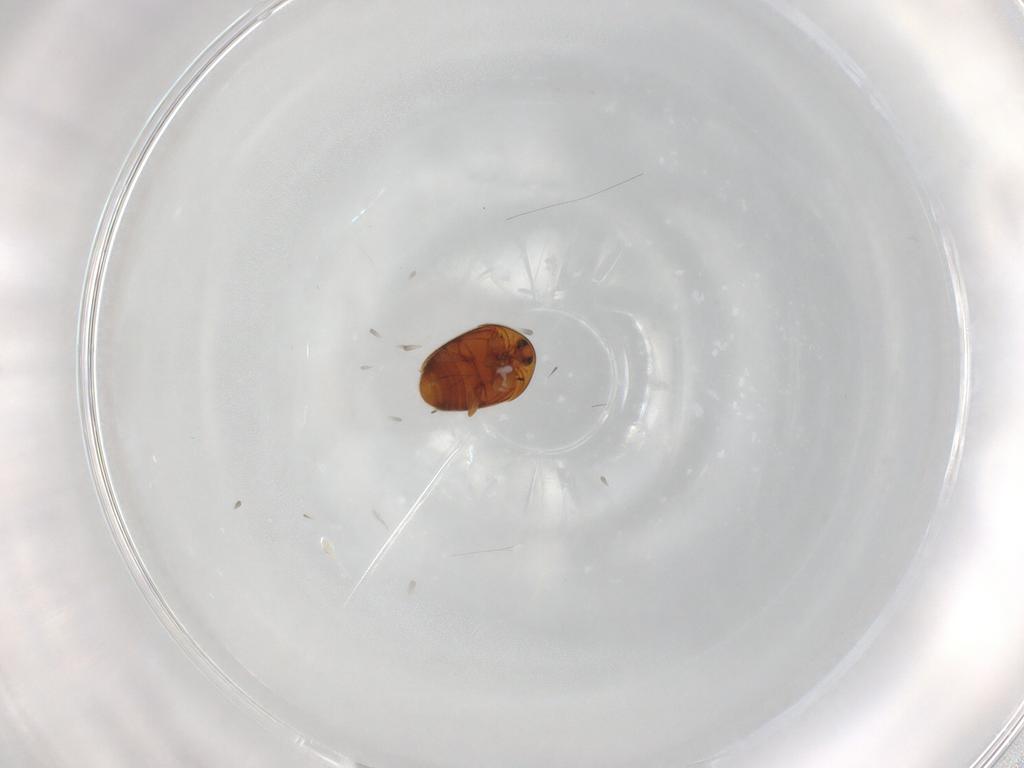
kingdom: Animalia
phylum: Arthropoda
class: Insecta
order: Coleoptera
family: Corylophidae
